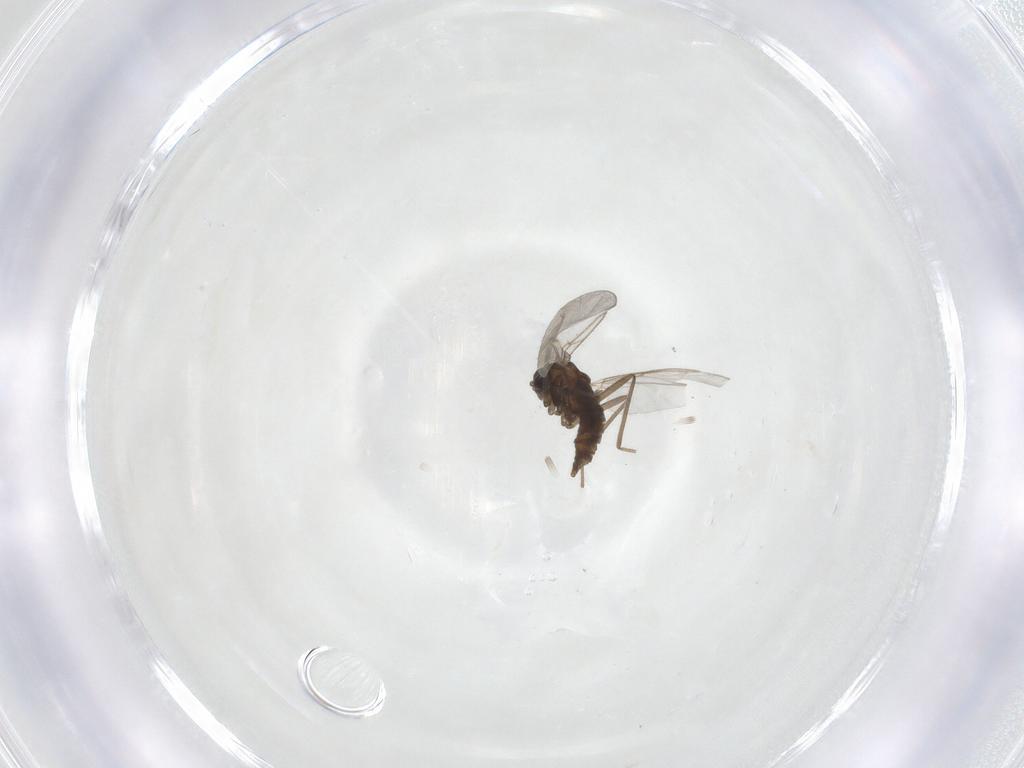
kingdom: Animalia
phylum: Arthropoda
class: Insecta
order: Diptera
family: Cecidomyiidae
